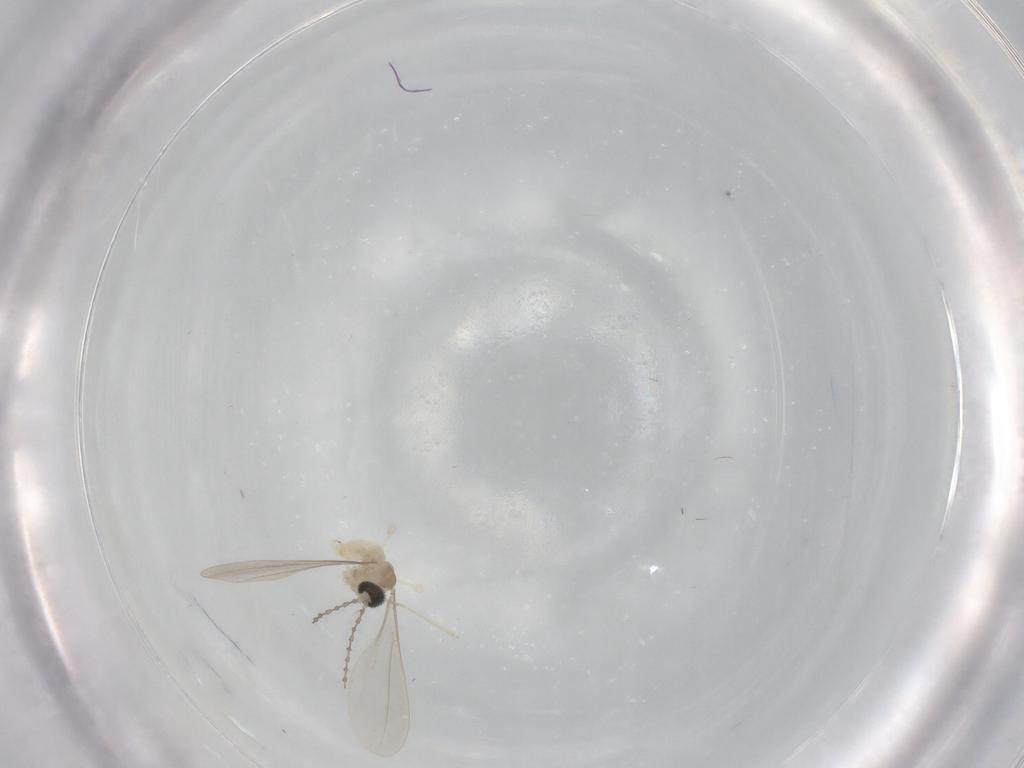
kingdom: Animalia
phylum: Arthropoda
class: Insecta
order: Diptera
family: Cecidomyiidae
